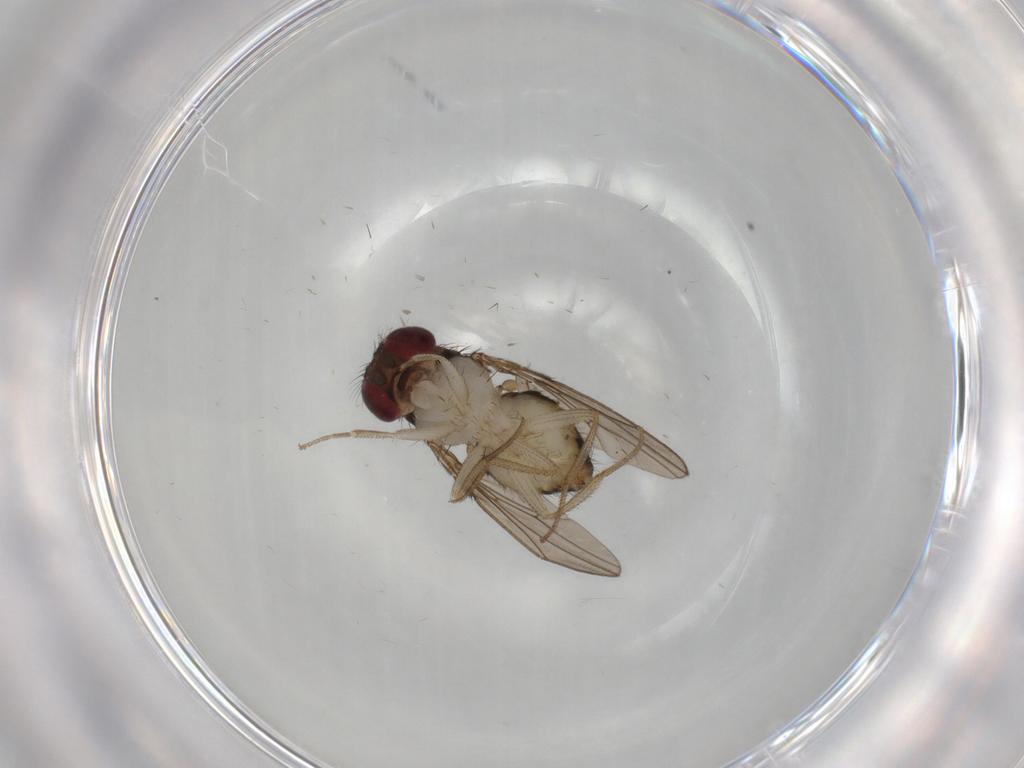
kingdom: Animalia
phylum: Arthropoda
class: Insecta
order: Diptera
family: Drosophilidae
